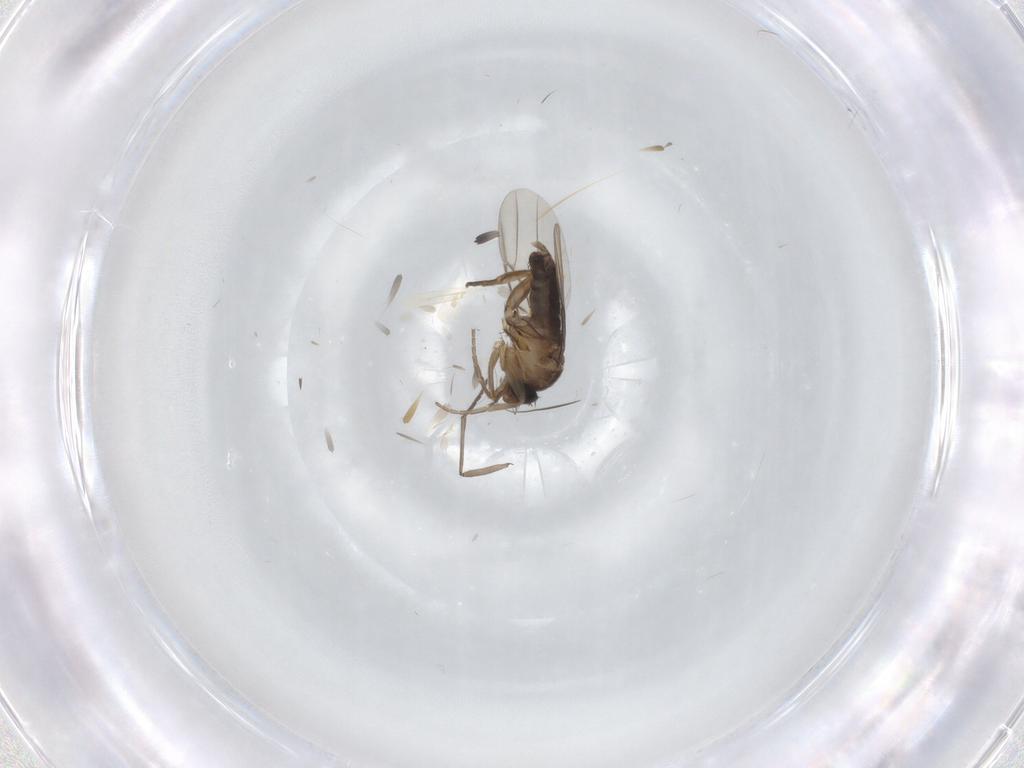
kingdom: Animalia
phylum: Arthropoda
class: Insecta
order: Diptera
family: Phoridae
